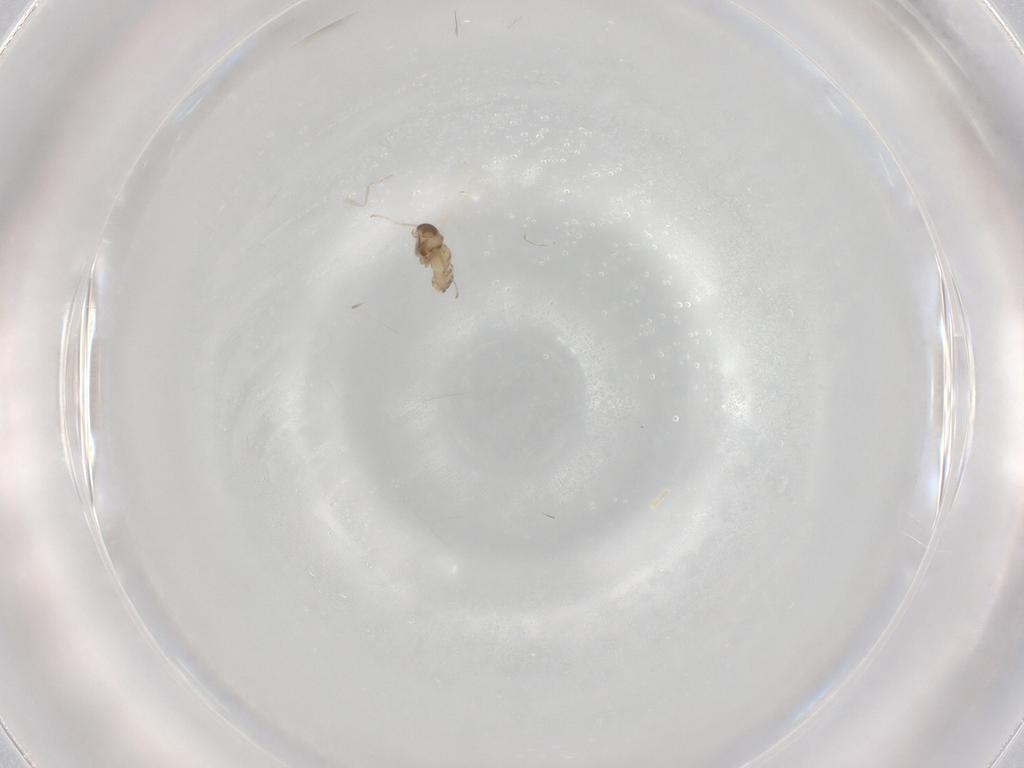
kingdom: Animalia
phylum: Arthropoda
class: Insecta
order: Diptera
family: Cecidomyiidae
